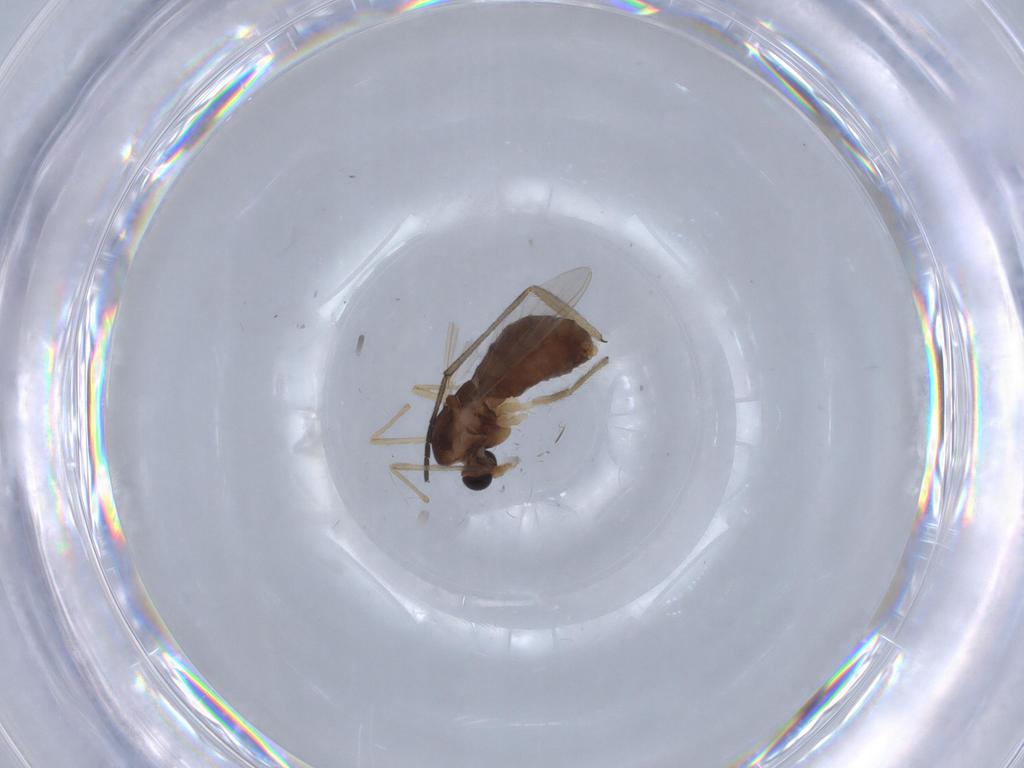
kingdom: Animalia
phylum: Arthropoda
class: Insecta
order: Diptera
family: Chironomidae
